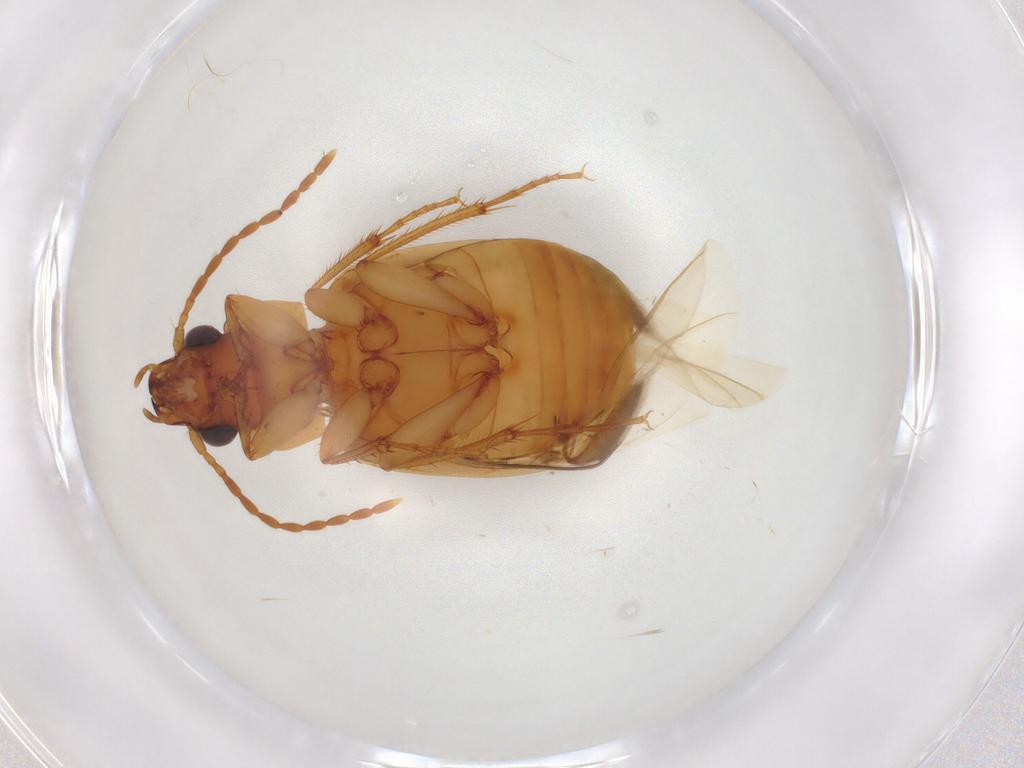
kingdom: Animalia
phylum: Arthropoda
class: Insecta
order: Coleoptera
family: Carabidae
